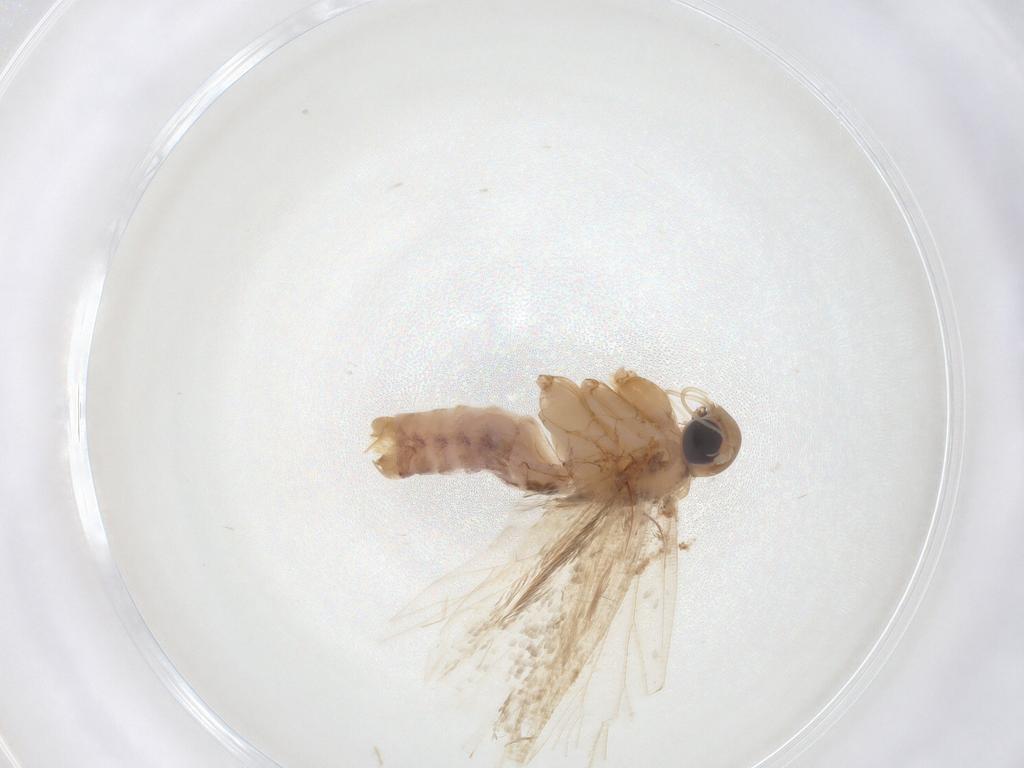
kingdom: Animalia
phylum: Arthropoda
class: Insecta
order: Lepidoptera
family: Gelechiidae
